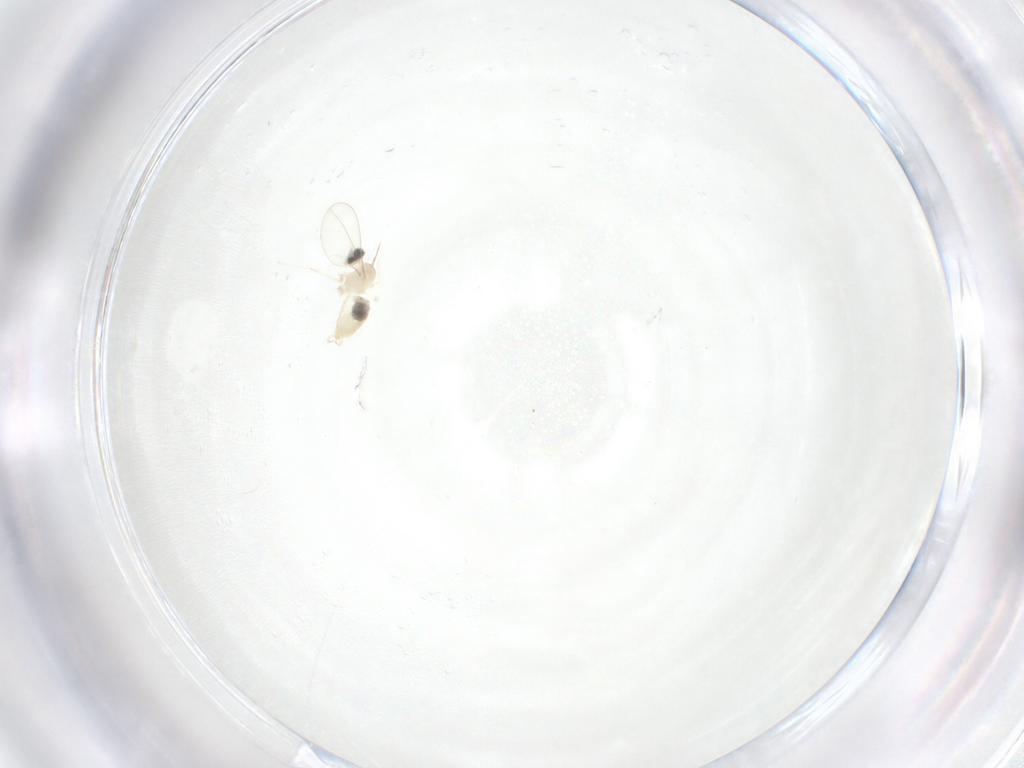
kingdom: Animalia
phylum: Arthropoda
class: Insecta
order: Diptera
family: Cecidomyiidae
